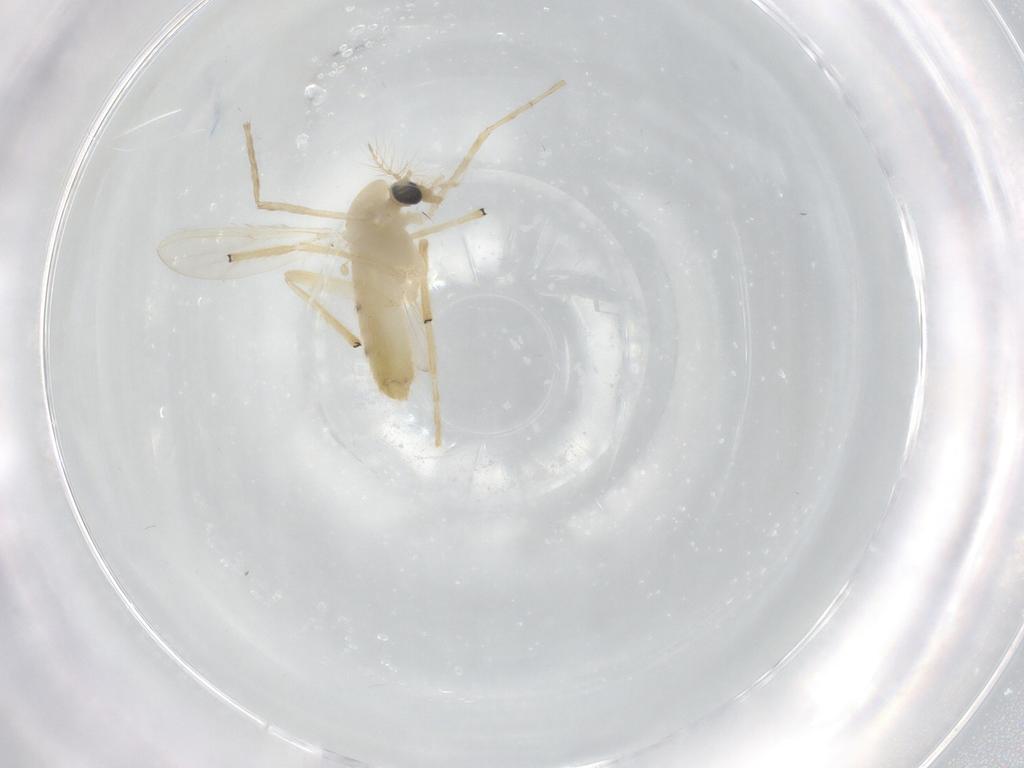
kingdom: Animalia
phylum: Arthropoda
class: Insecta
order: Diptera
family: Chironomidae
